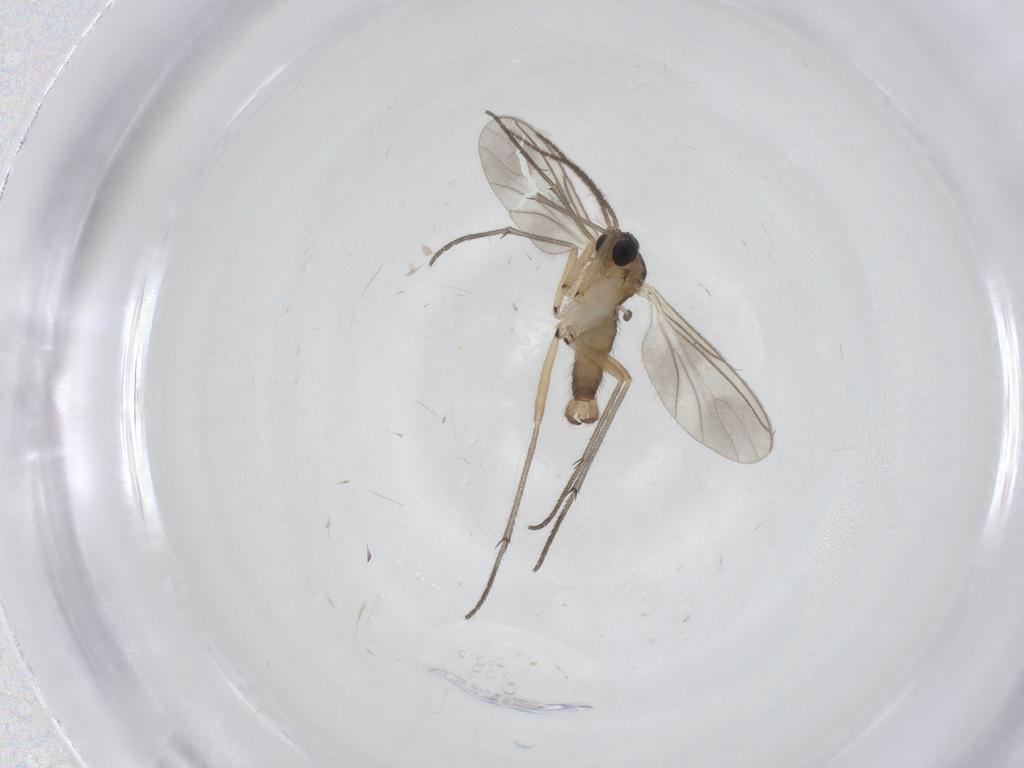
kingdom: Animalia
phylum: Arthropoda
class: Insecta
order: Diptera
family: Sciaridae
